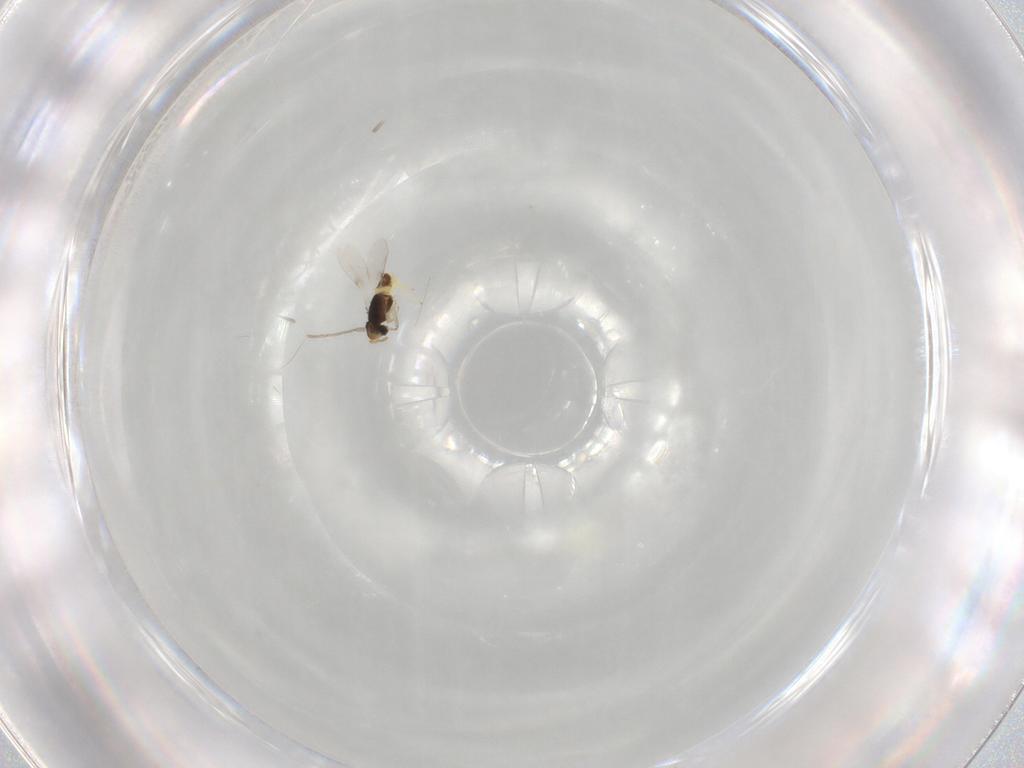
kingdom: Animalia
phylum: Arthropoda
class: Insecta
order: Hymenoptera
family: Encyrtidae
